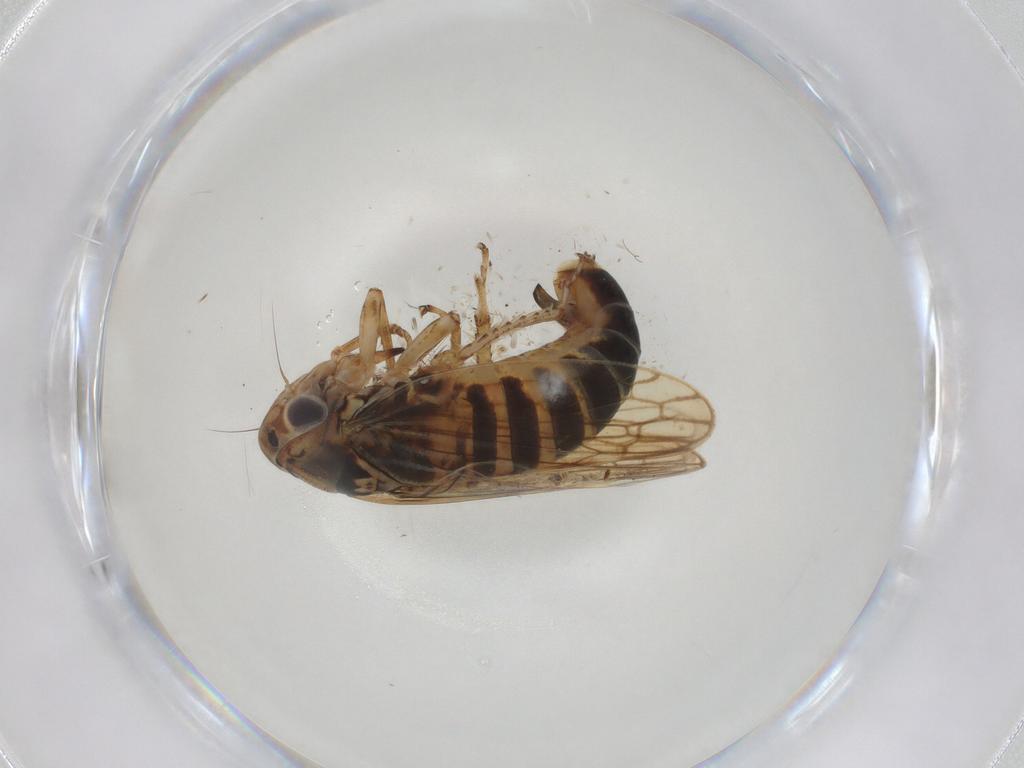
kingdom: Animalia
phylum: Arthropoda
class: Insecta
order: Hemiptera
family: Cicadellidae
